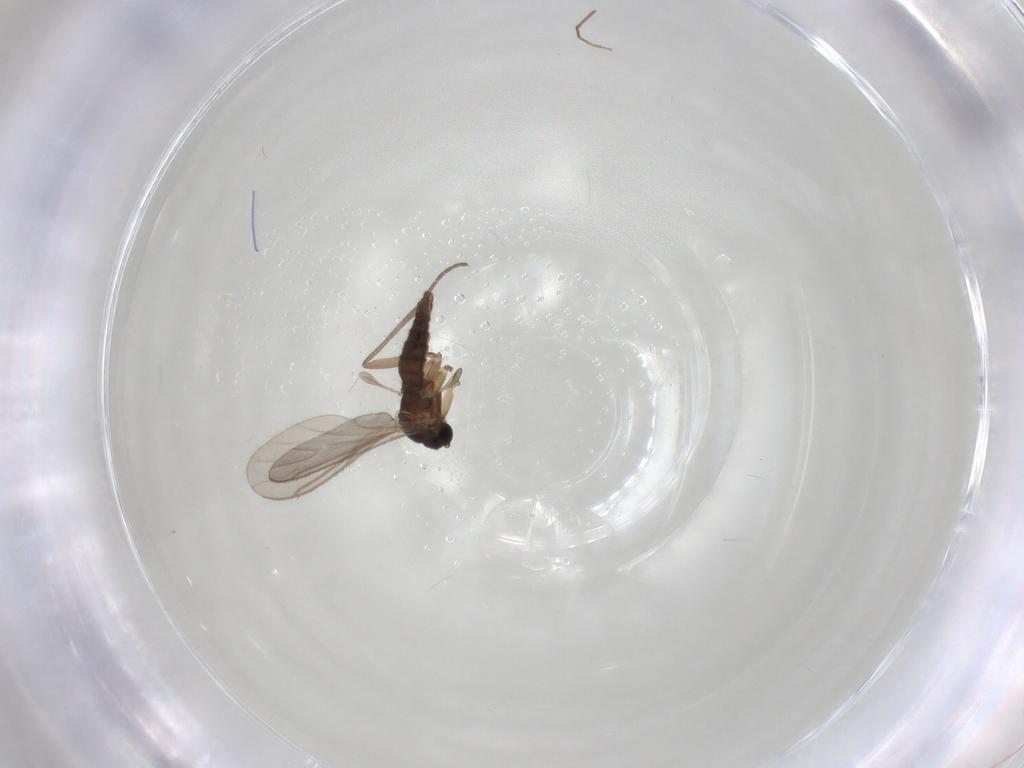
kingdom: Animalia
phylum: Arthropoda
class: Insecta
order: Diptera
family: Sciaridae
